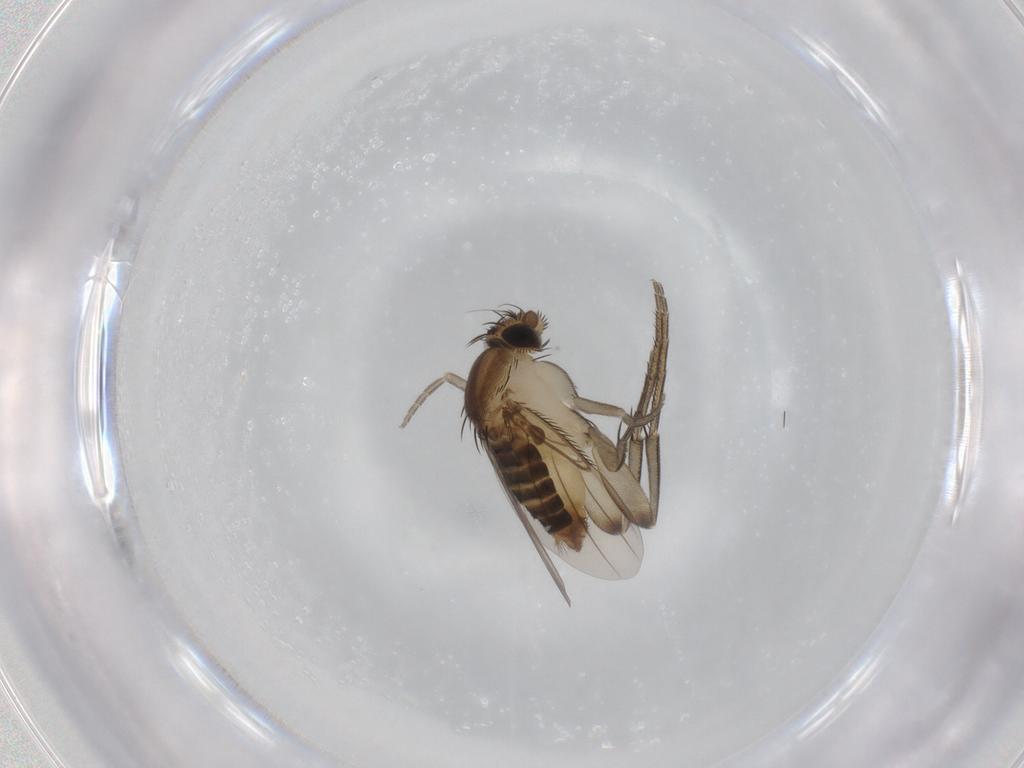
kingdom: Animalia
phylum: Arthropoda
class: Insecta
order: Diptera
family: Phoridae
